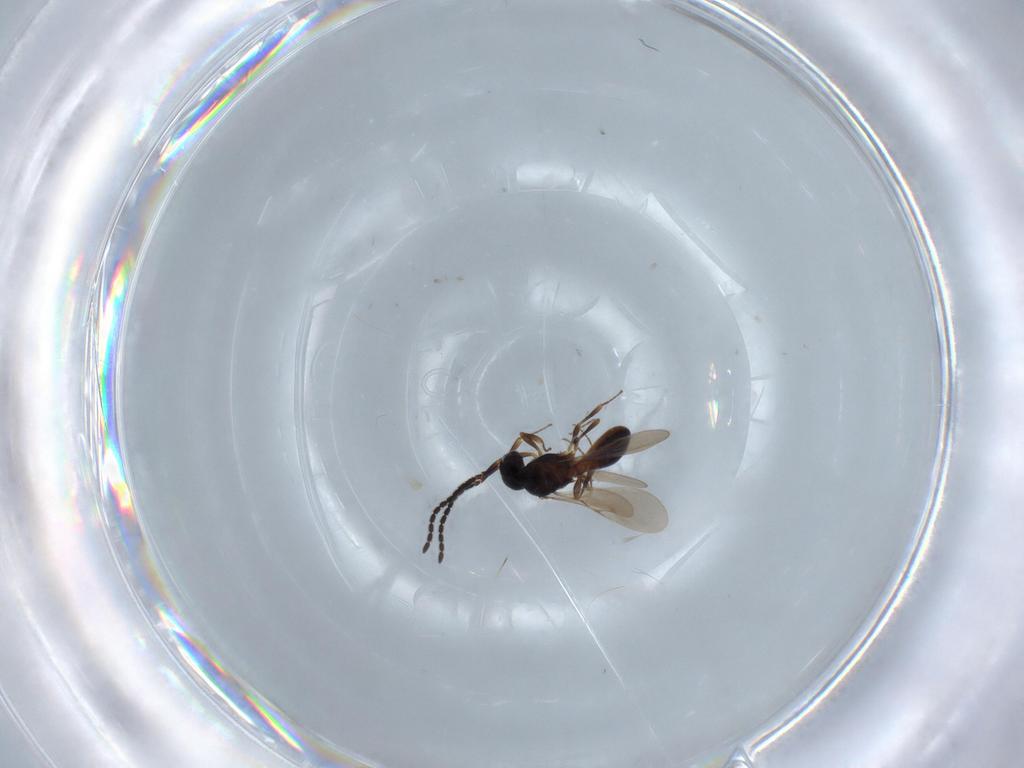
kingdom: Animalia
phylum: Arthropoda
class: Insecta
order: Hymenoptera
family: Scelionidae
